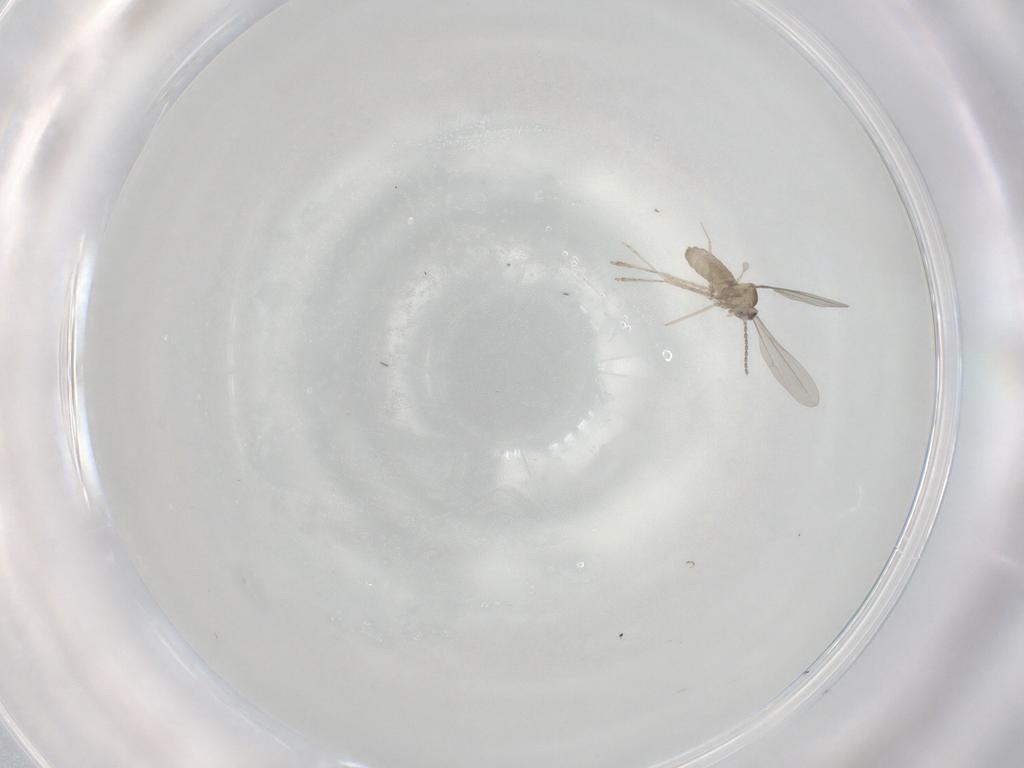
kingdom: Animalia
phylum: Arthropoda
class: Insecta
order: Diptera
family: Cecidomyiidae
